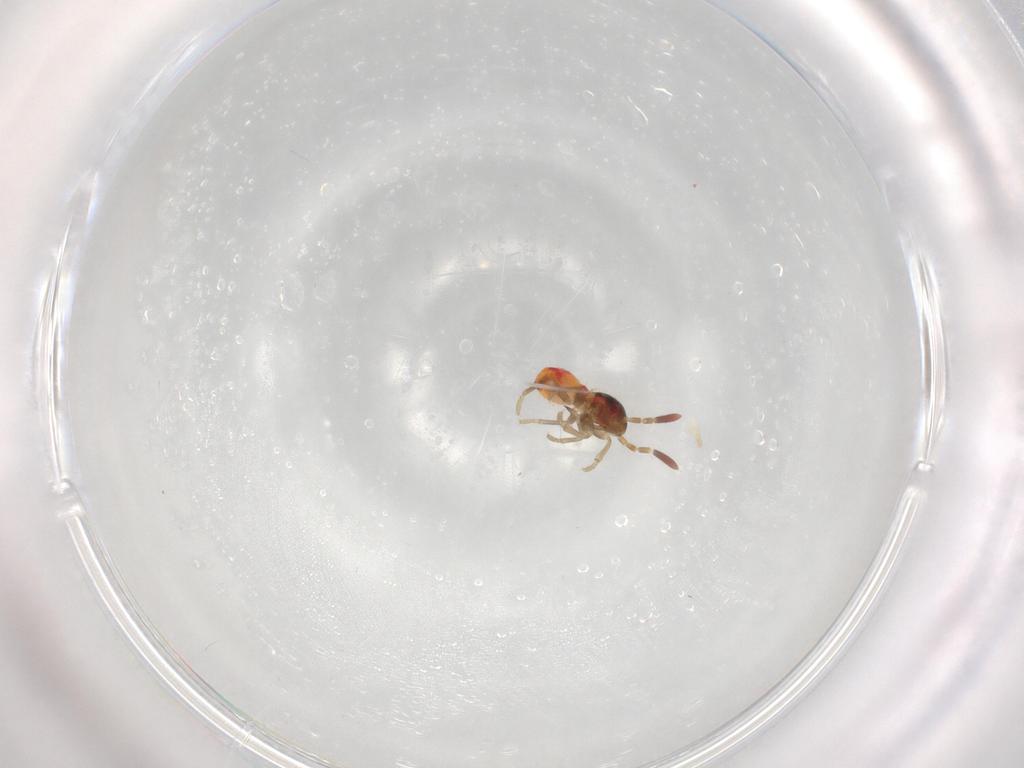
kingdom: Animalia
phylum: Arthropoda
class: Insecta
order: Hemiptera
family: Rhyparochromidae
